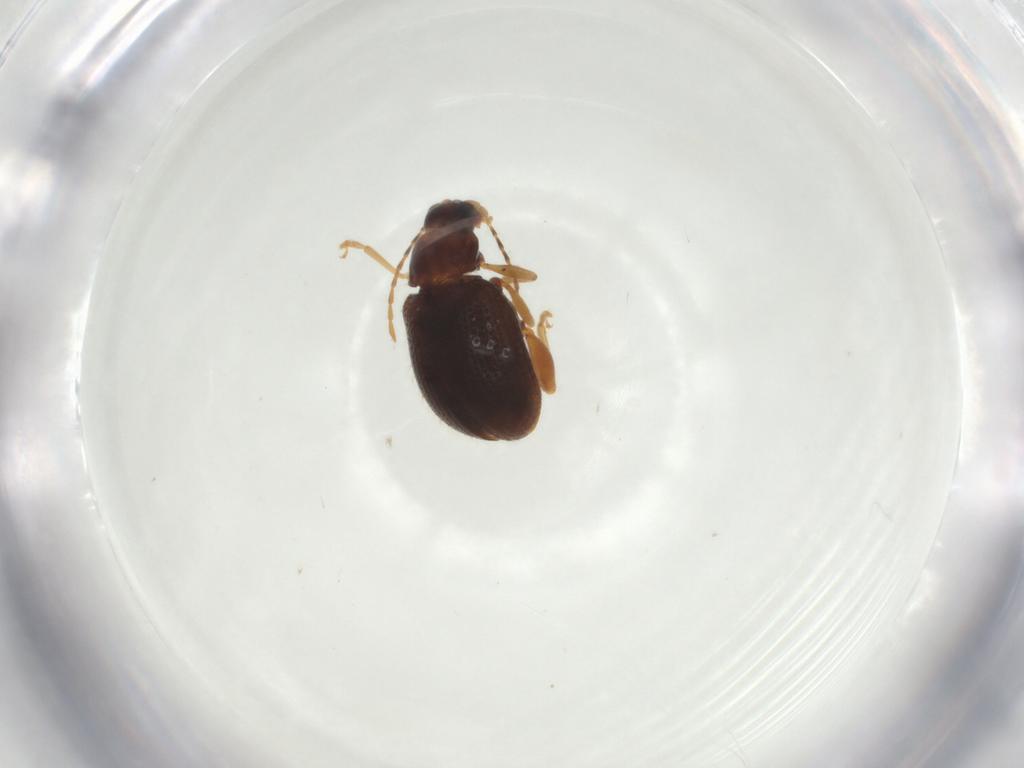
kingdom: Animalia
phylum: Arthropoda
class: Insecta
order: Coleoptera
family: Chrysomelidae
